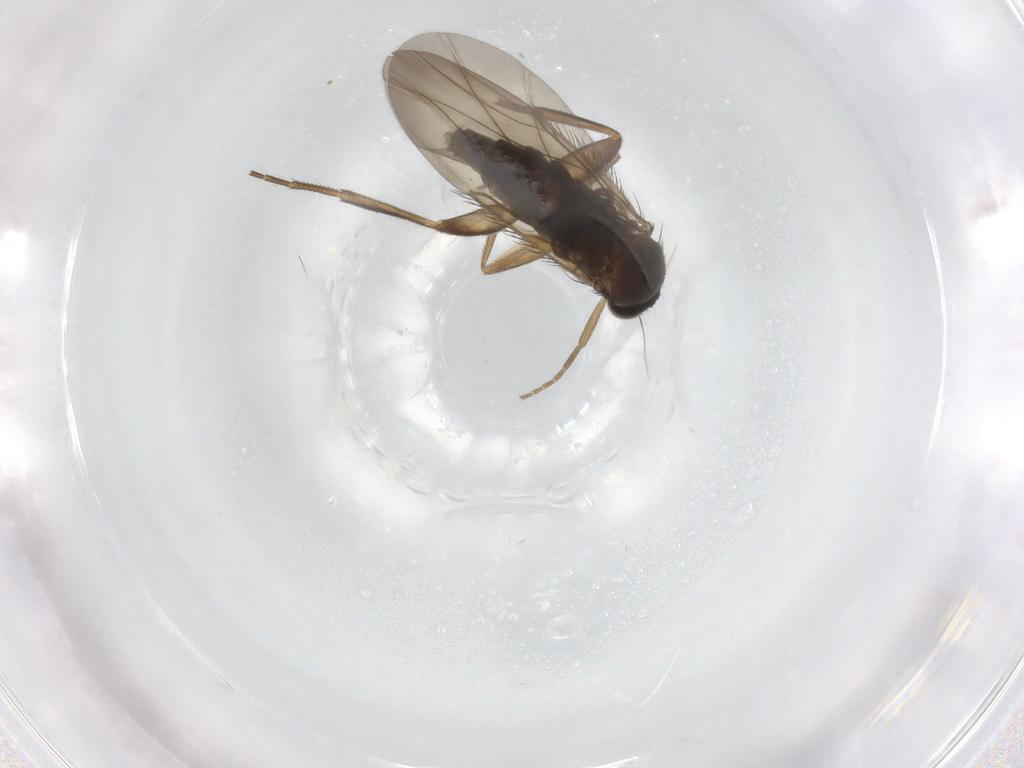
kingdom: Animalia
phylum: Arthropoda
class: Insecta
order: Diptera
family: Phoridae
